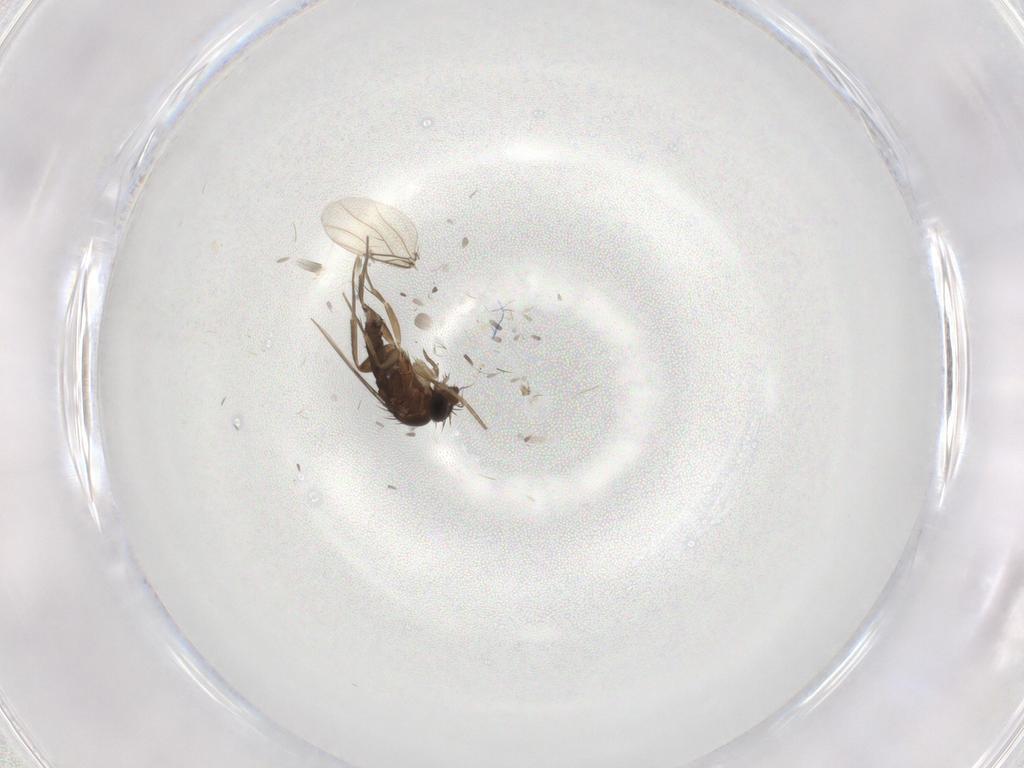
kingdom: Animalia
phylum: Arthropoda
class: Insecta
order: Diptera
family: Phoridae
